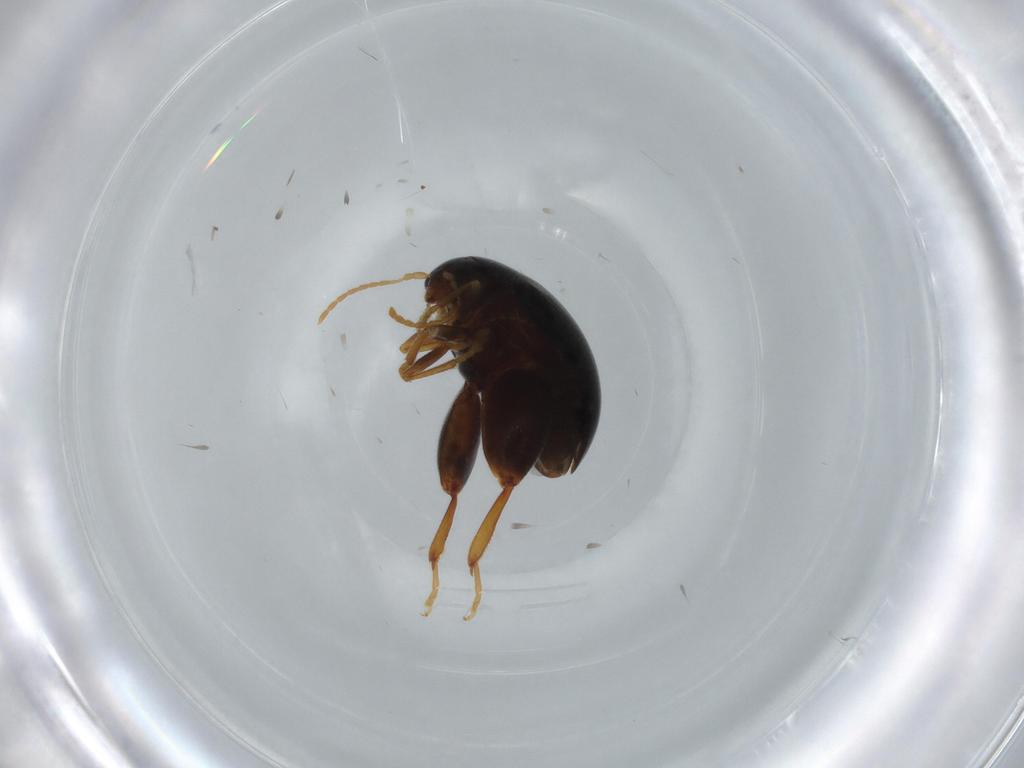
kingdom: Animalia
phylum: Arthropoda
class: Insecta
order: Coleoptera
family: Chrysomelidae
